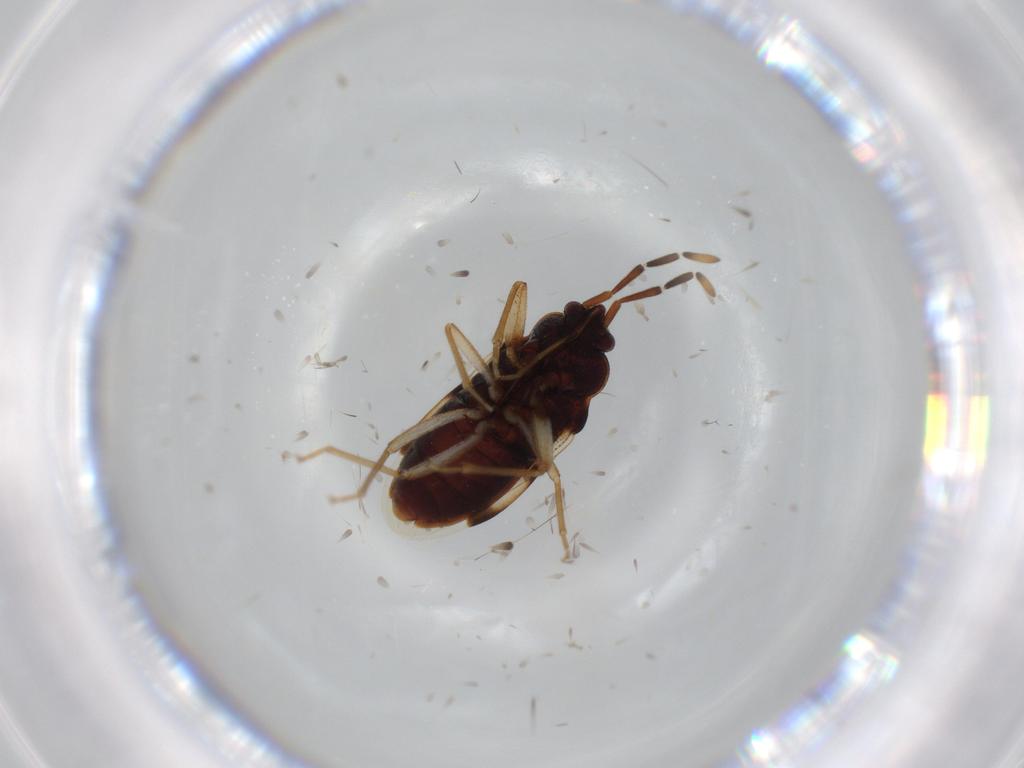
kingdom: Animalia
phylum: Arthropoda
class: Insecta
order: Hemiptera
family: Rhyparochromidae
